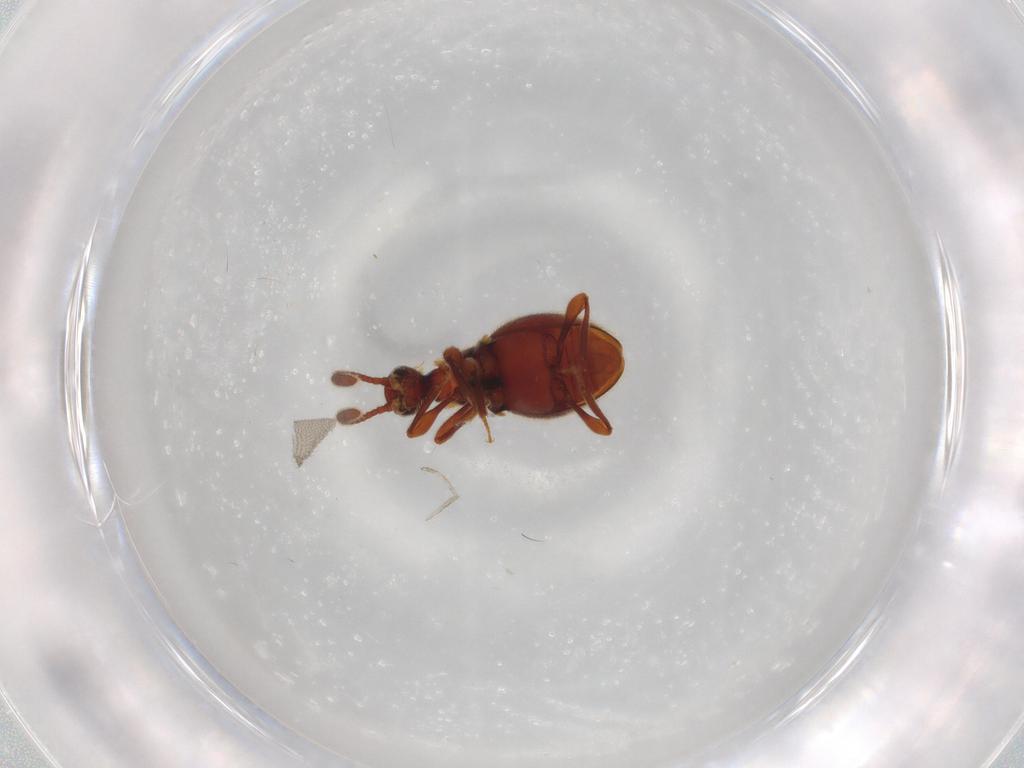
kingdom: Animalia
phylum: Arthropoda
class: Insecta
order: Coleoptera
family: Staphylinidae
